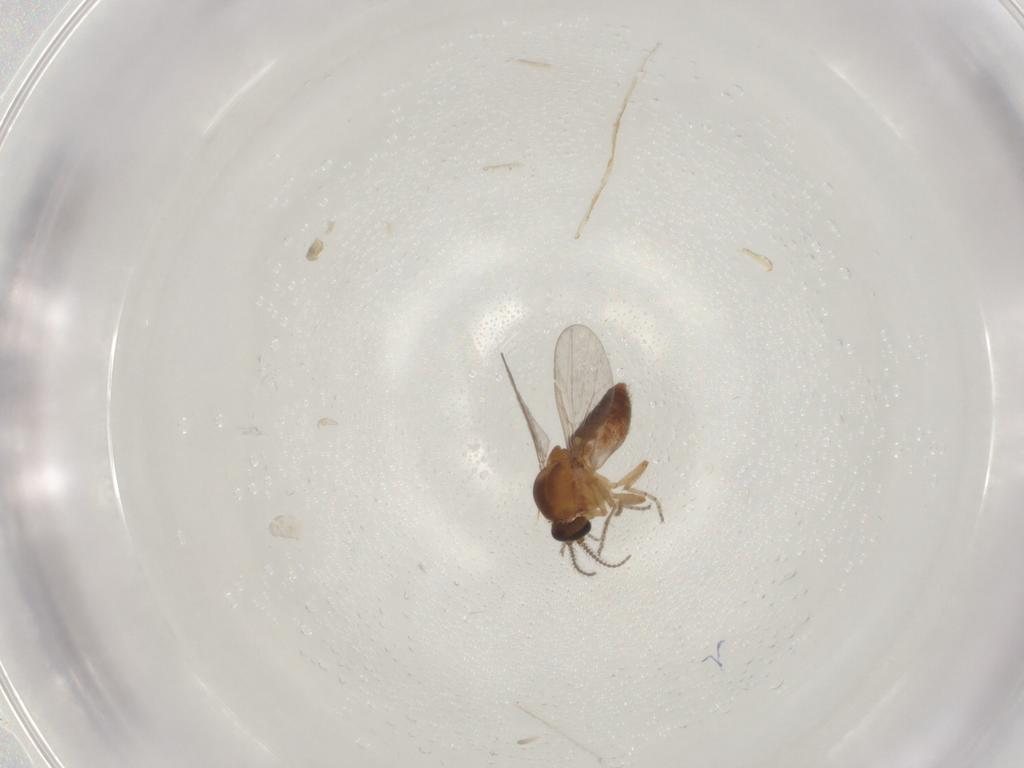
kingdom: Animalia
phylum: Arthropoda
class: Insecta
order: Diptera
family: Ceratopogonidae
